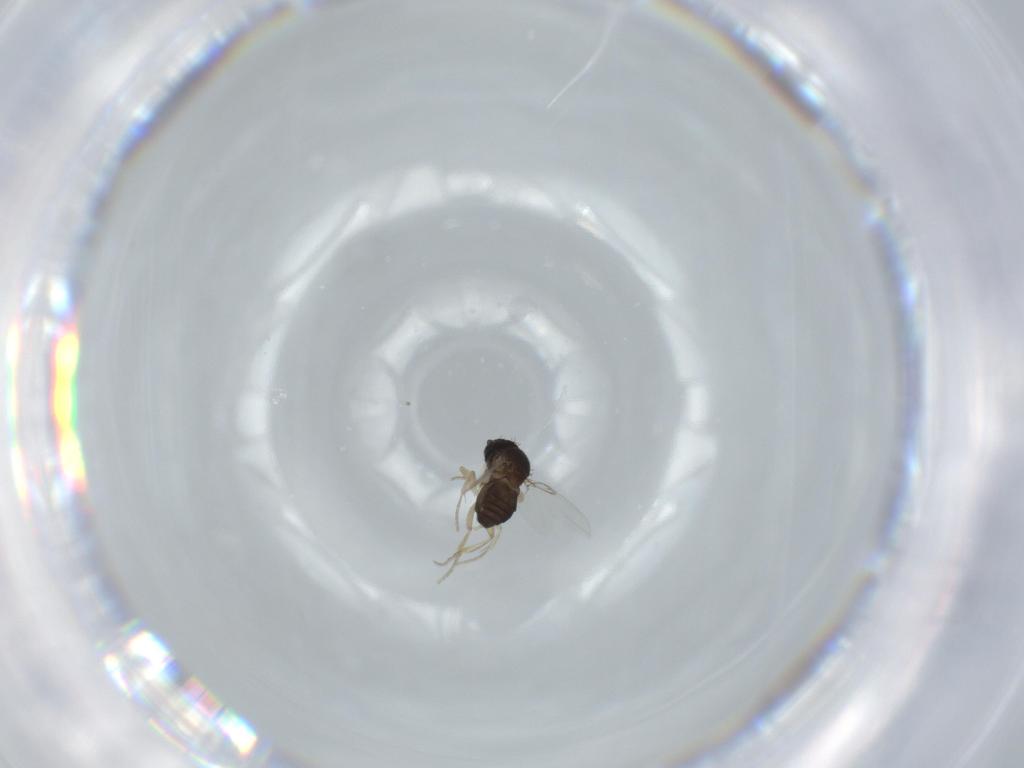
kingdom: Animalia
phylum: Arthropoda
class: Insecta
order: Diptera
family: Phoridae
